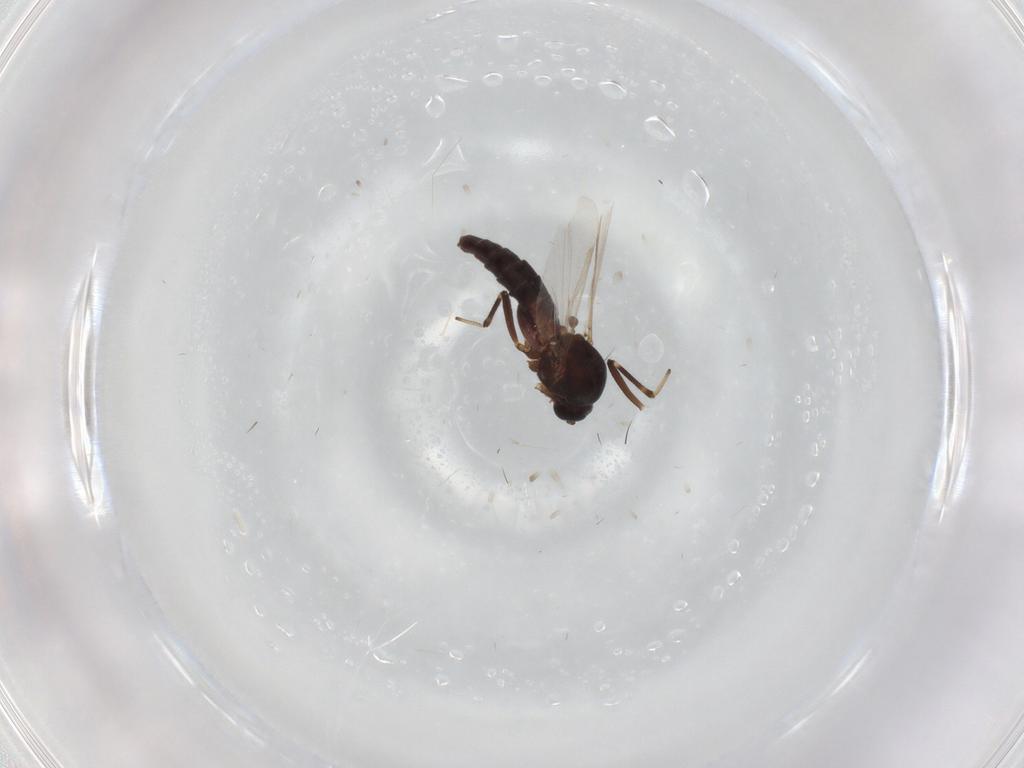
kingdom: Animalia
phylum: Arthropoda
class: Insecta
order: Diptera
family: Ceratopogonidae
